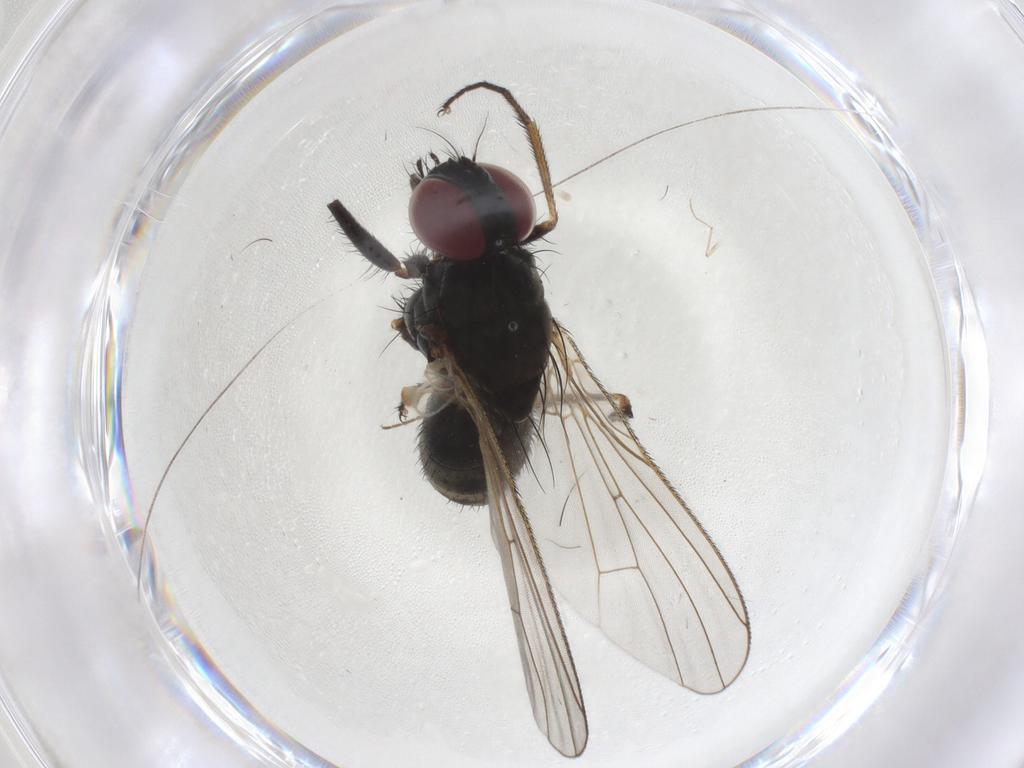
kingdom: Animalia
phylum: Arthropoda
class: Insecta
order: Diptera
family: Muscidae
